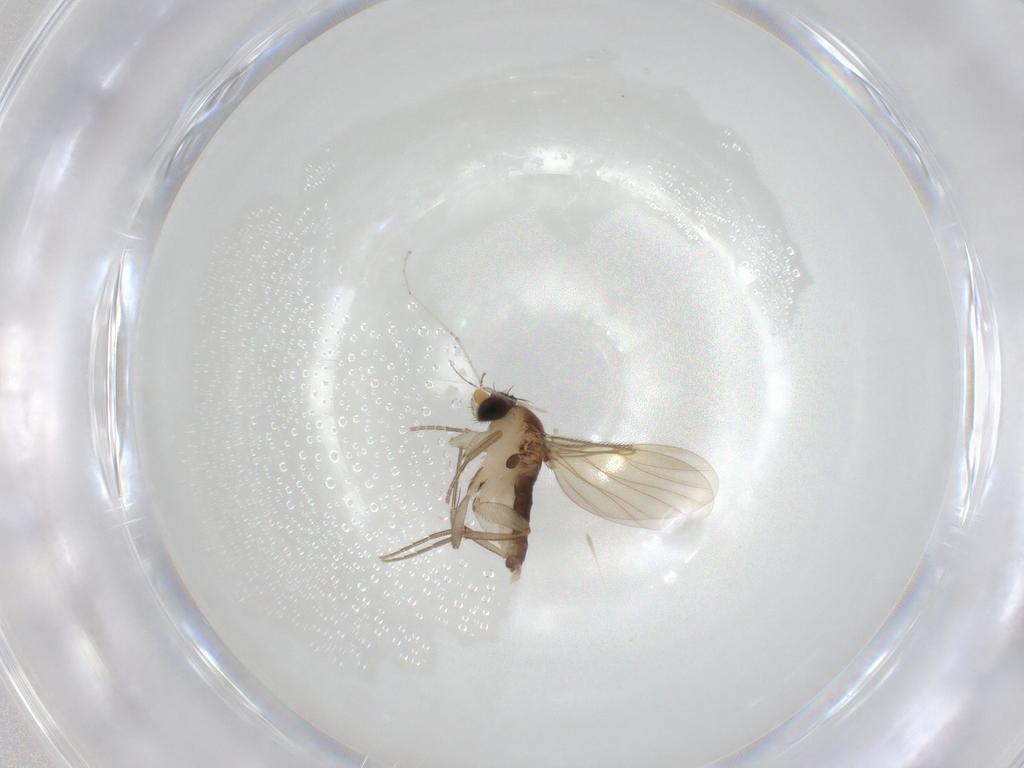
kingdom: Animalia
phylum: Arthropoda
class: Insecta
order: Diptera
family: Phoridae
